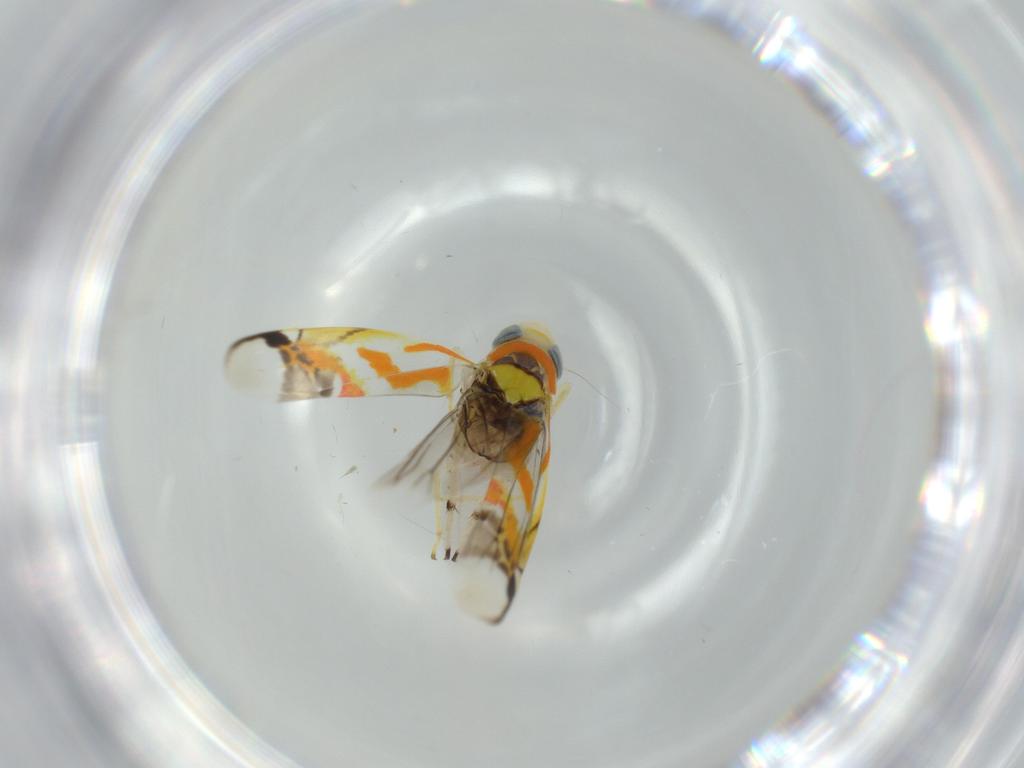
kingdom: Animalia
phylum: Arthropoda
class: Insecta
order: Hemiptera
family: Cicadellidae
